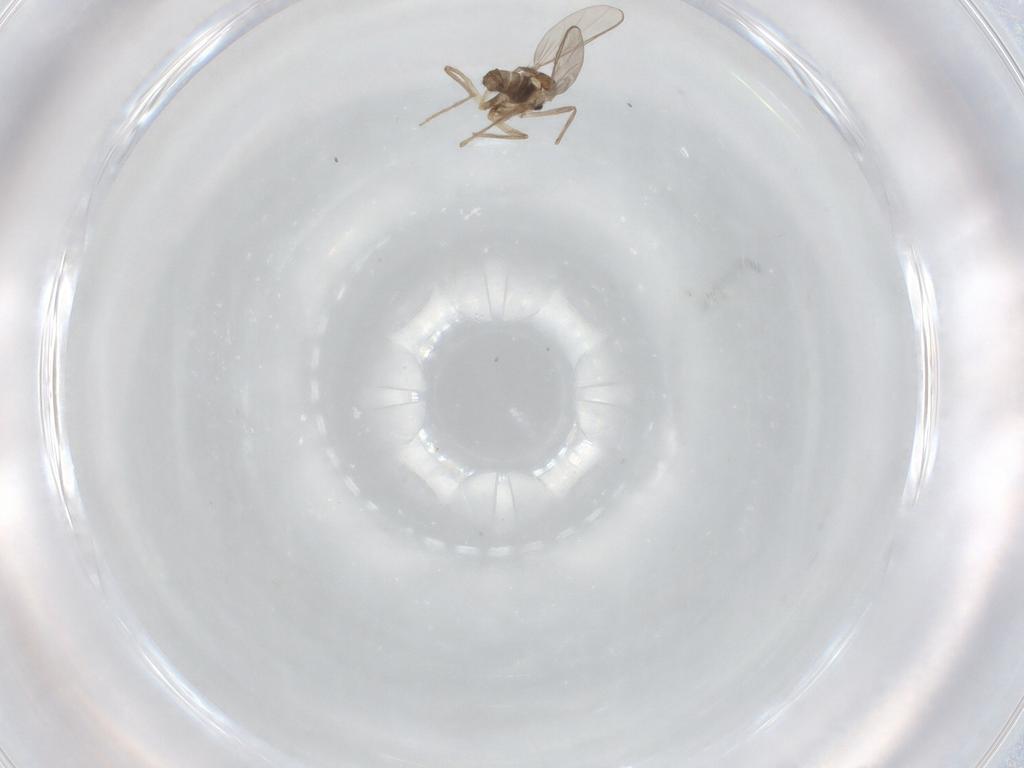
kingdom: Animalia
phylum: Arthropoda
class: Insecta
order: Diptera
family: Chironomidae
